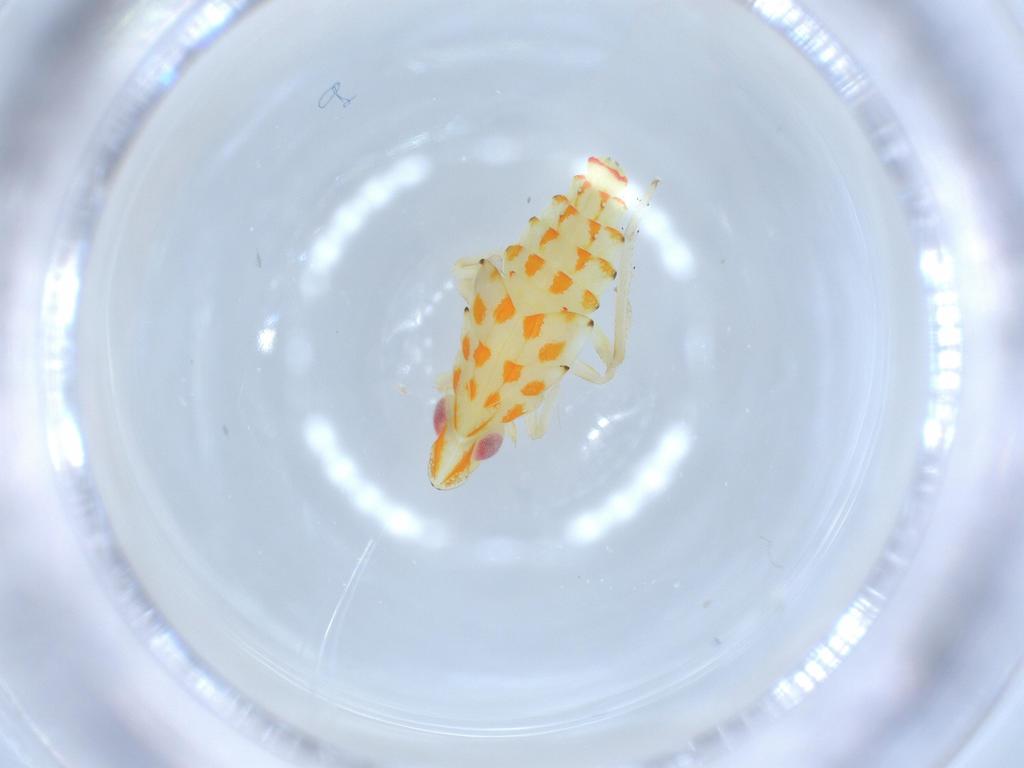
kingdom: Animalia
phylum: Arthropoda
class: Insecta
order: Hemiptera
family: Tropiduchidae
